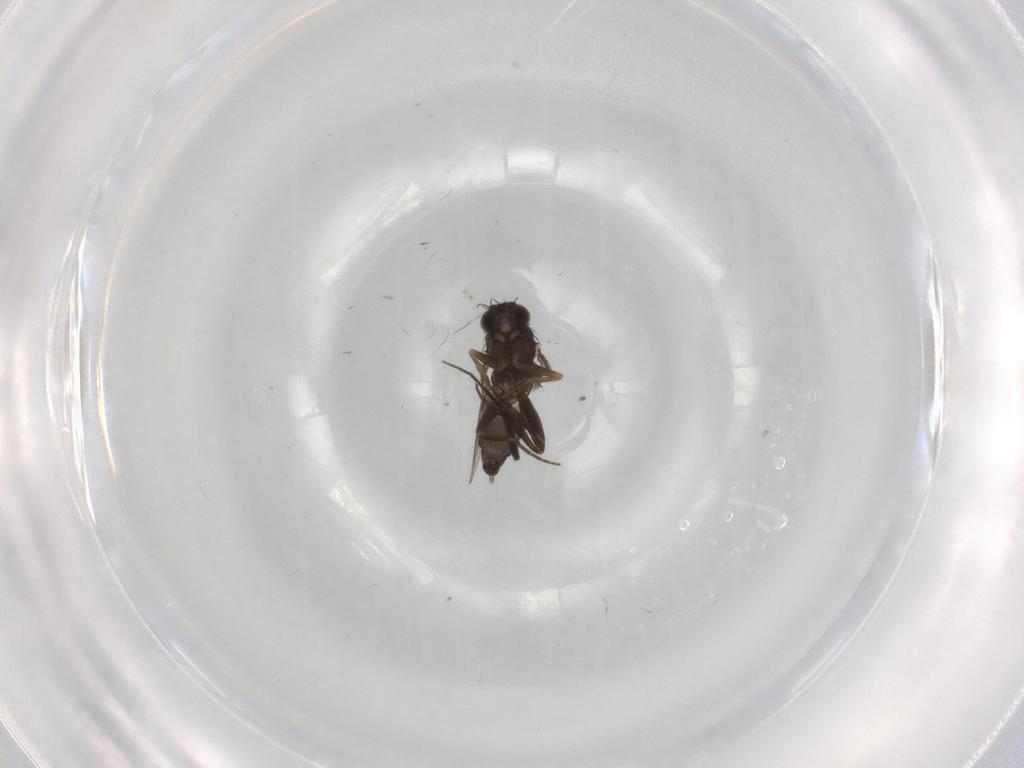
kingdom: Animalia
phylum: Arthropoda
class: Insecta
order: Diptera
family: Phoridae
